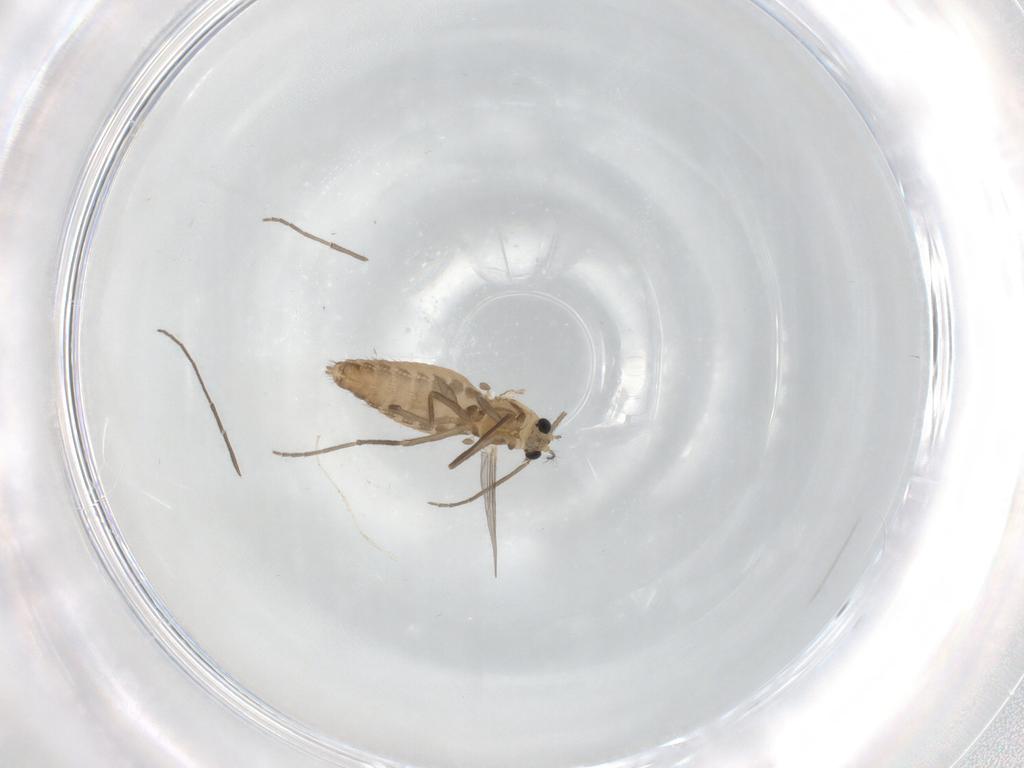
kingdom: Animalia
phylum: Arthropoda
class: Insecta
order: Diptera
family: Chironomidae
